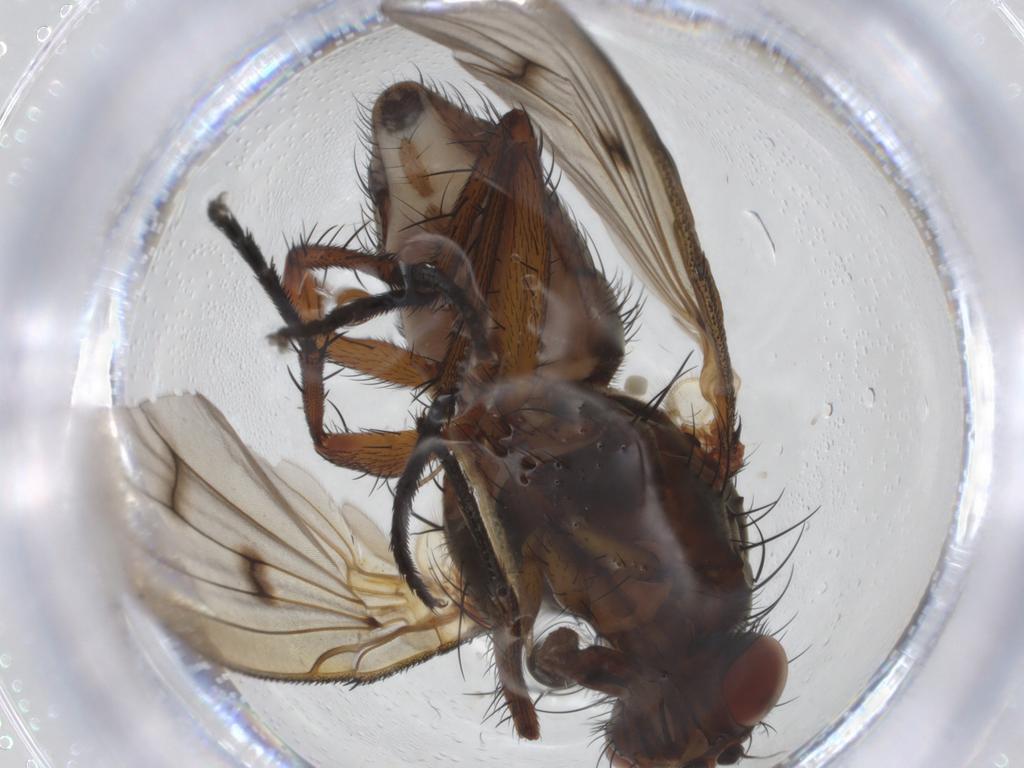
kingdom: Animalia
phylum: Arthropoda
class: Insecta
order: Diptera
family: Anthomyiidae
